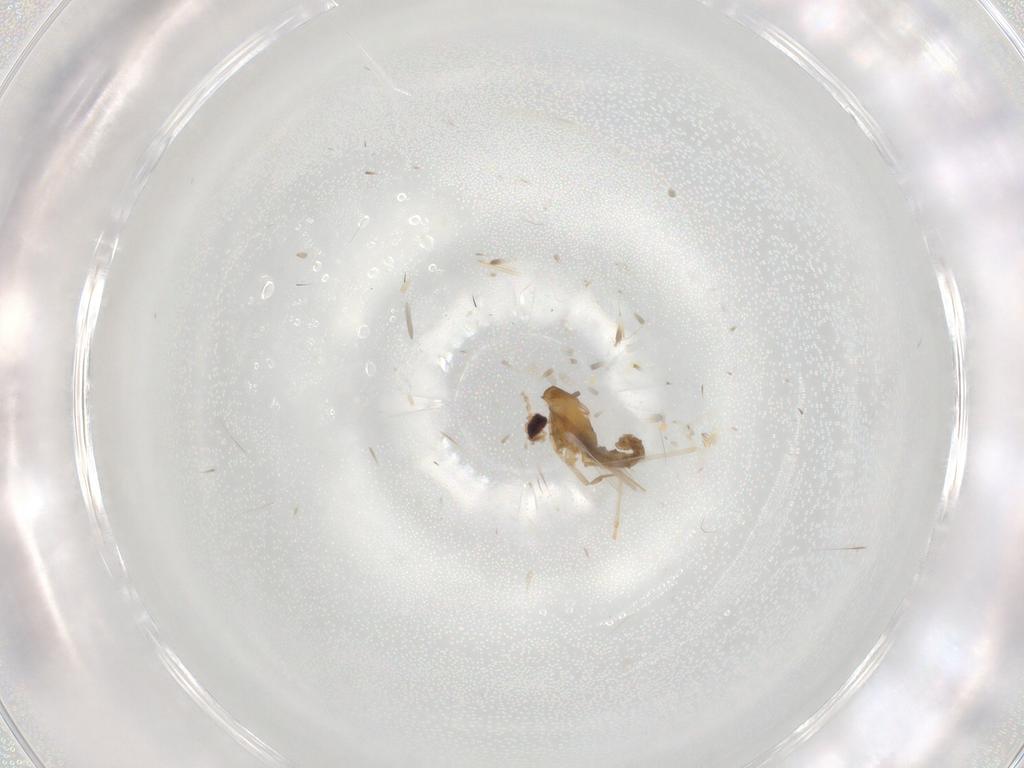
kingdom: Animalia
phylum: Arthropoda
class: Insecta
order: Diptera
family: Cecidomyiidae
